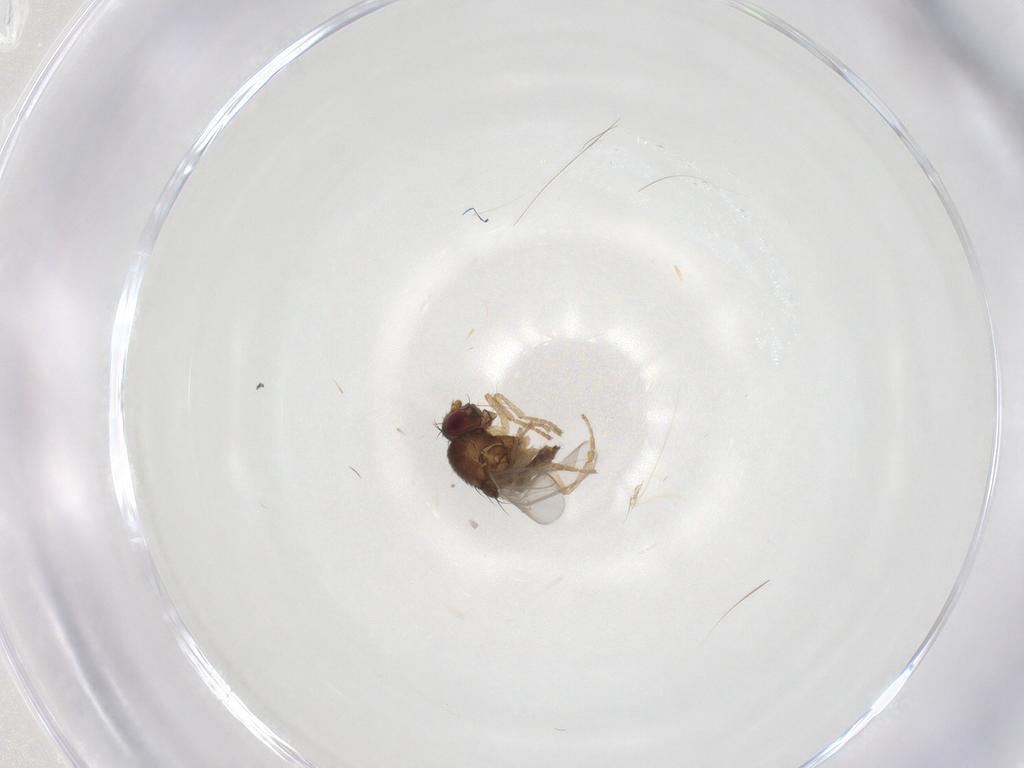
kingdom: Animalia
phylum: Arthropoda
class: Insecta
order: Diptera
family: Sphaeroceridae
